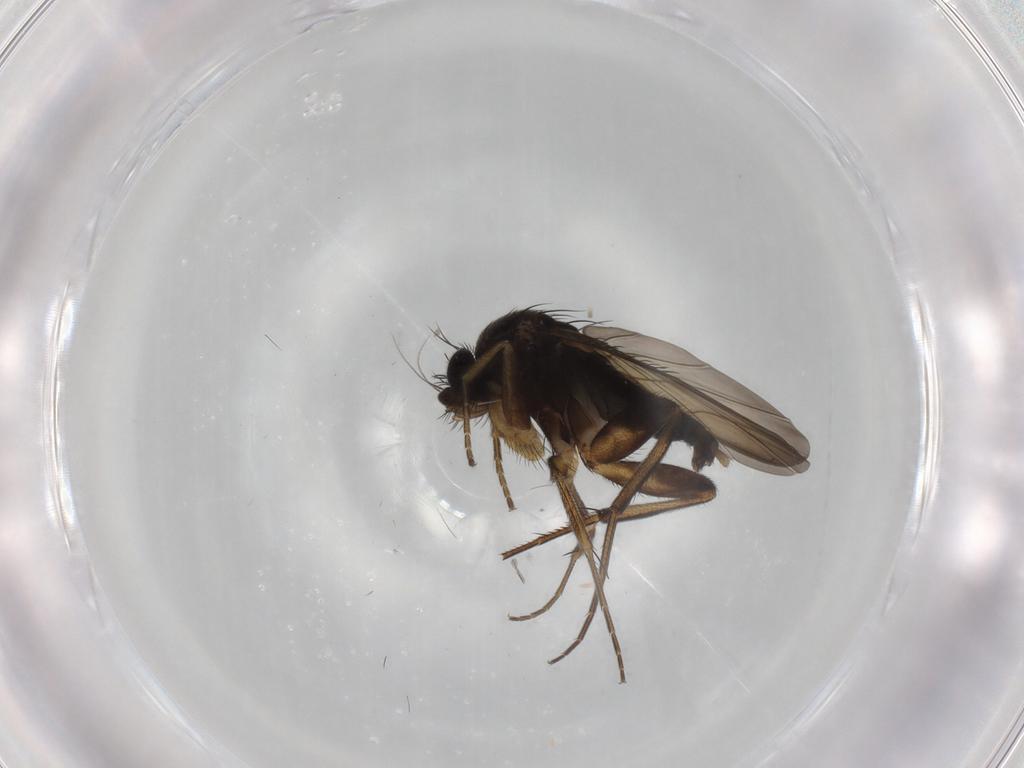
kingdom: Animalia
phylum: Arthropoda
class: Insecta
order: Diptera
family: Phoridae
